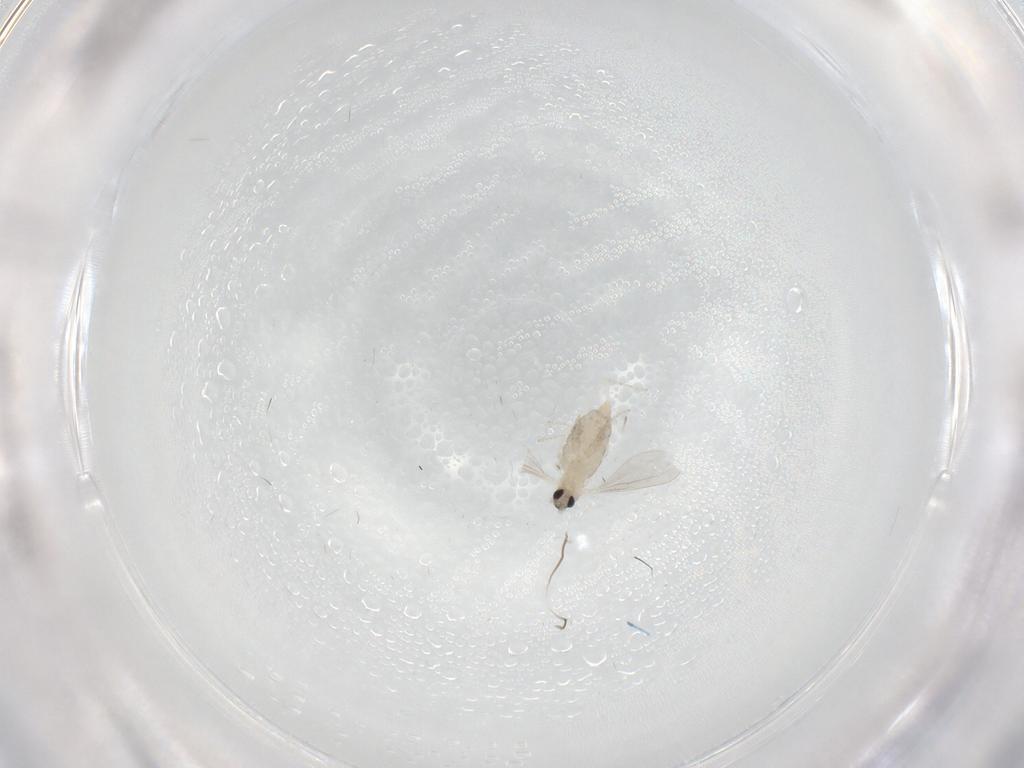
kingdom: Animalia
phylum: Arthropoda
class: Insecta
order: Diptera
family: Cecidomyiidae
